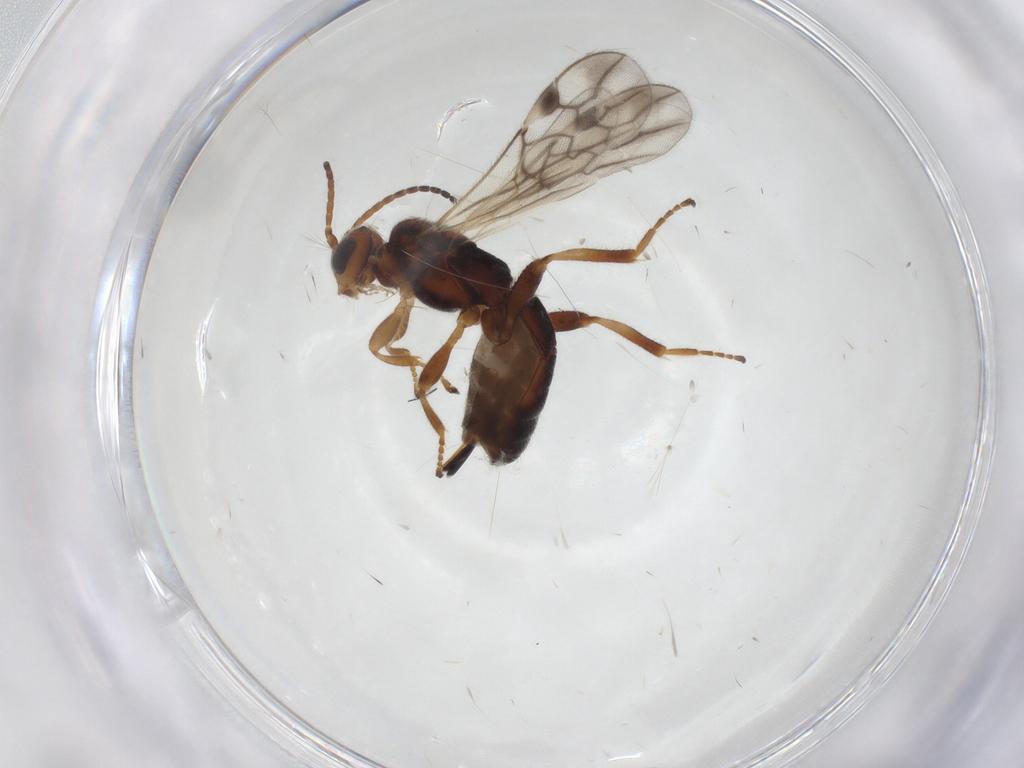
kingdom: Animalia
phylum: Arthropoda
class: Insecta
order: Hymenoptera
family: Braconidae
